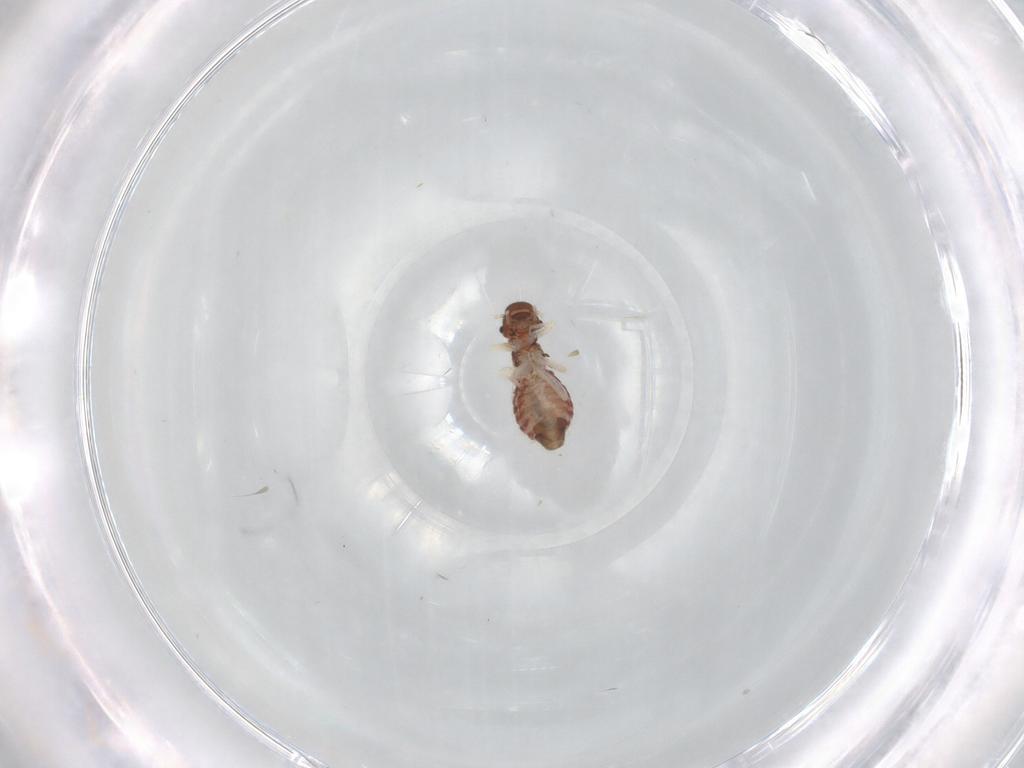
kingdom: Animalia
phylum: Arthropoda
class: Insecta
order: Psocodea
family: Archipsocidae
